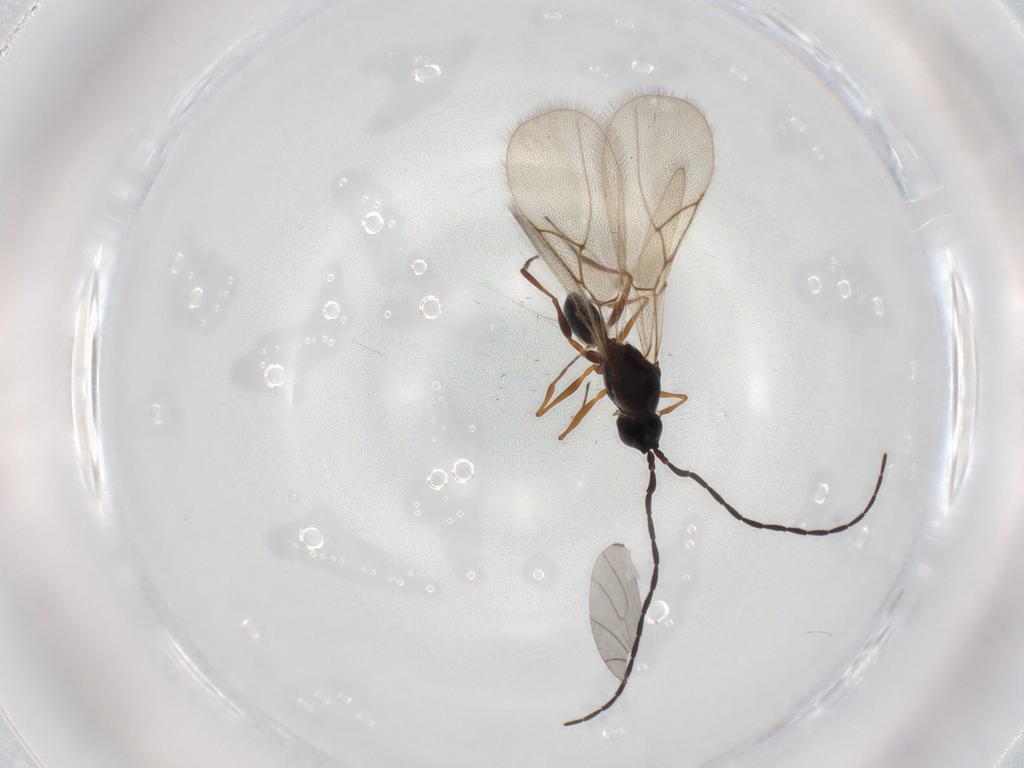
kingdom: Animalia
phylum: Arthropoda
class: Insecta
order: Hymenoptera
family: Figitidae
